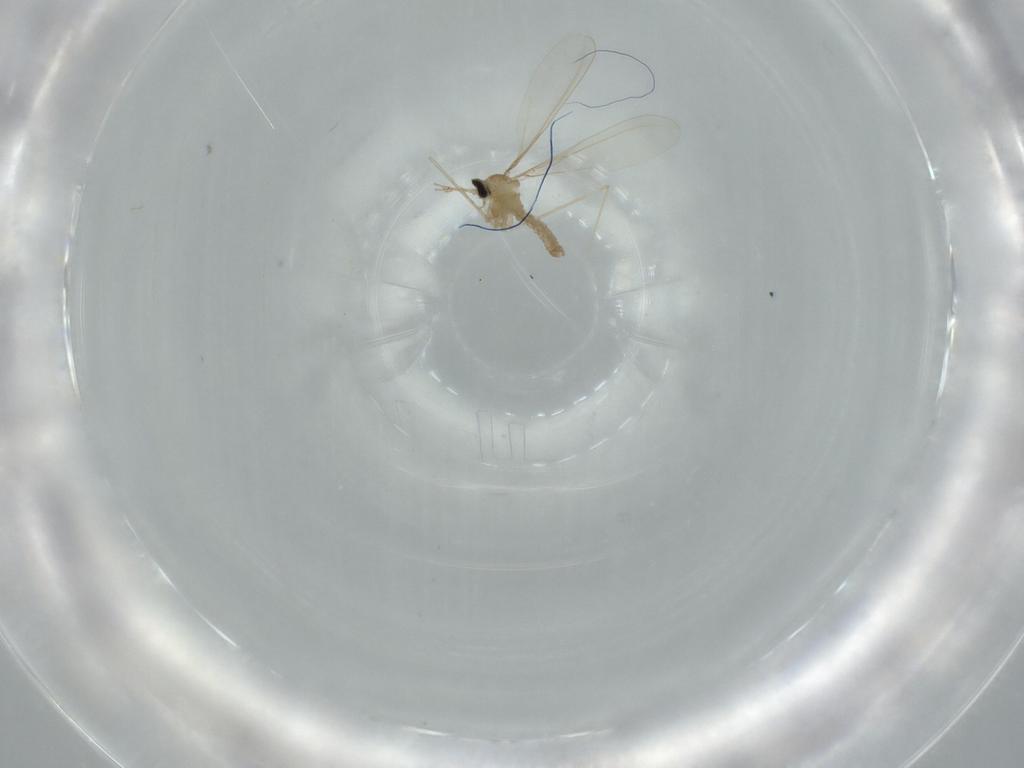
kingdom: Animalia
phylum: Arthropoda
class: Insecta
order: Diptera
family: Cecidomyiidae
